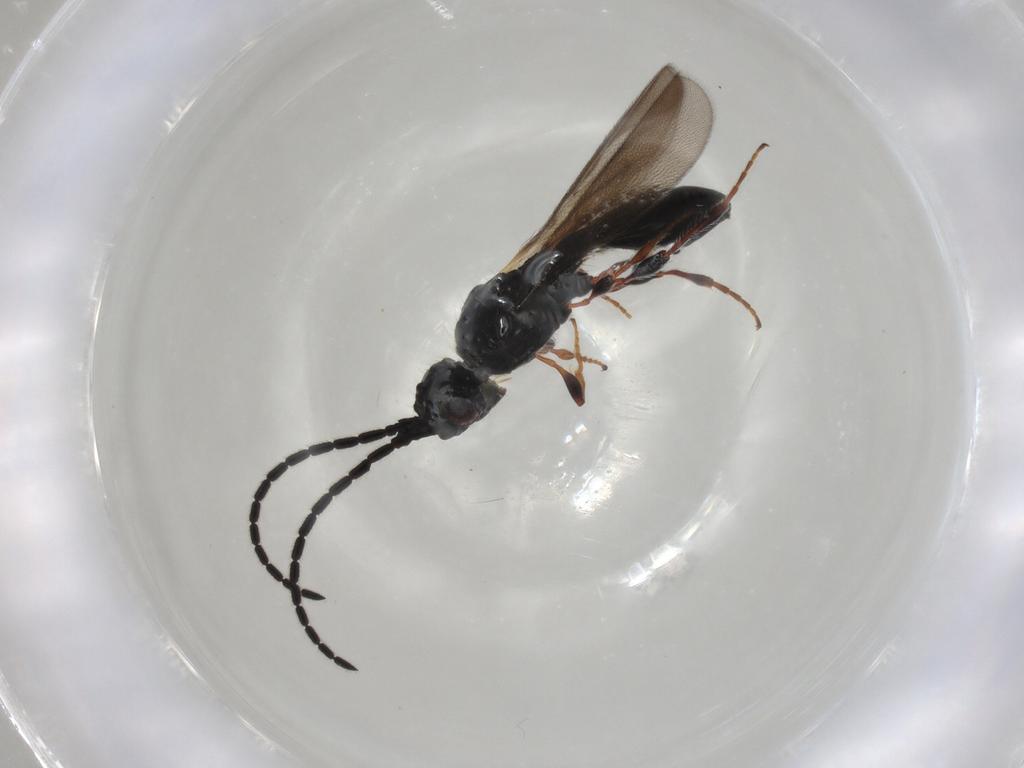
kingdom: Animalia
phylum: Arthropoda
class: Insecta
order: Hymenoptera
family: Diapriidae
